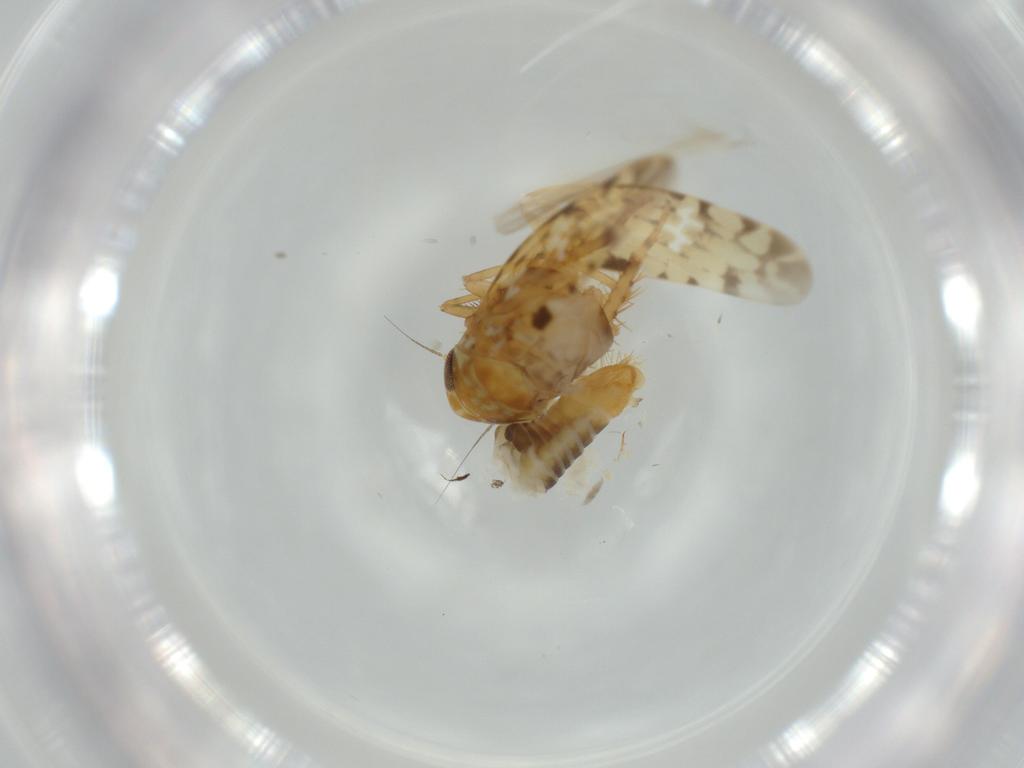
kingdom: Animalia
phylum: Arthropoda
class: Insecta
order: Hemiptera
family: Cicadellidae
